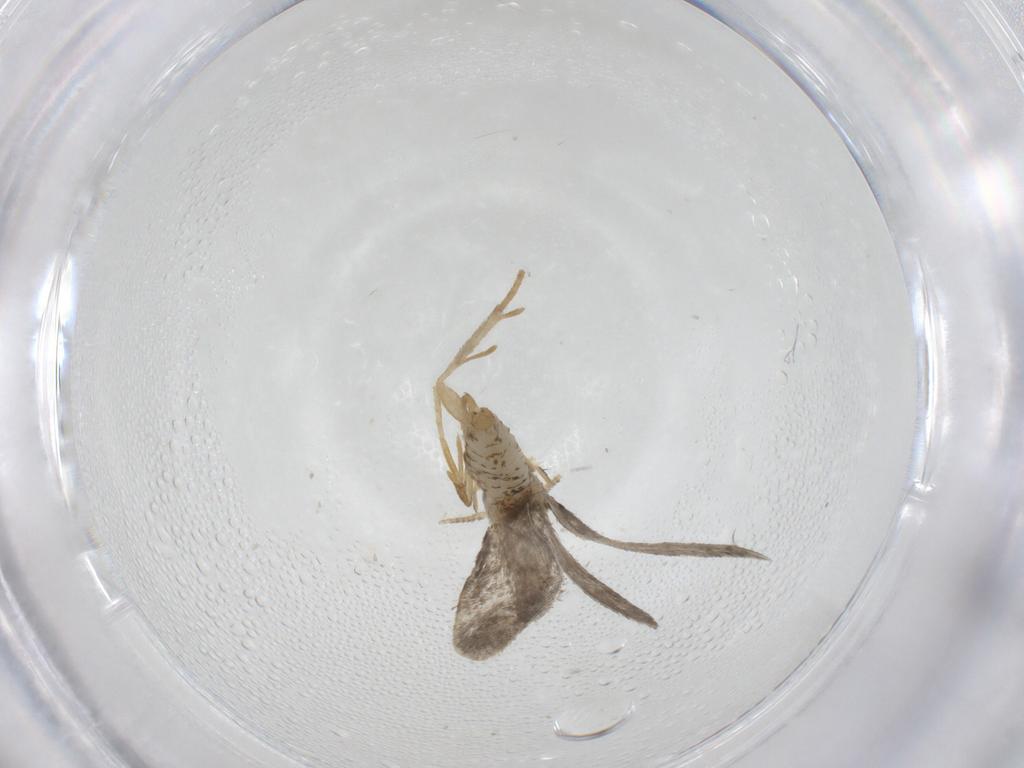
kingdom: Animalia
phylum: Arthropoda
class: Insecta
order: Lepidoptera
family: Psychidae
